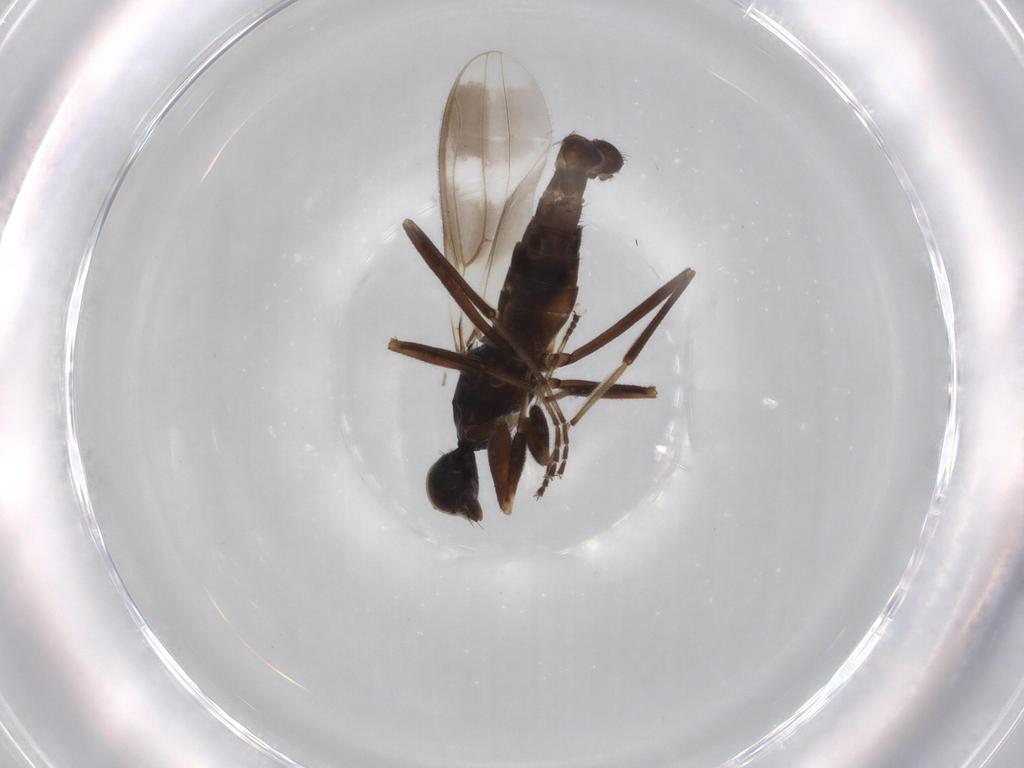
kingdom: Animalia
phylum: Arthropoda
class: Insecta
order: Diptera
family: Hybotidae
